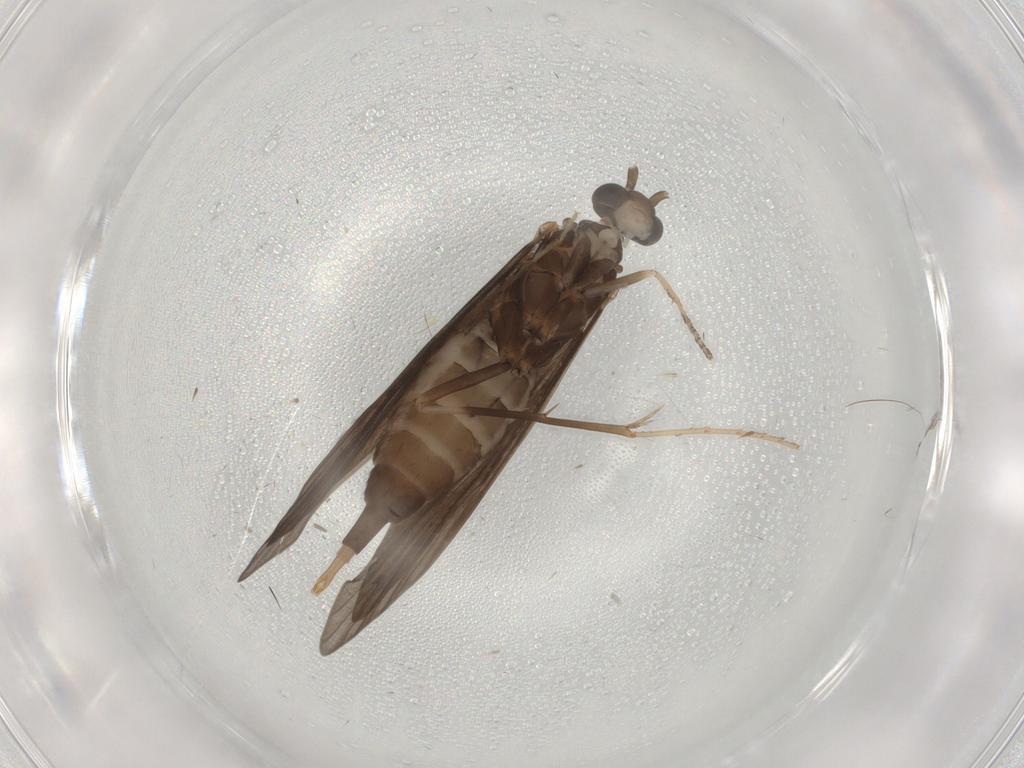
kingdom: Animalia
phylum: Arthropoda
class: Insecta
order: Trichoptera
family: Xiphocentronidae
